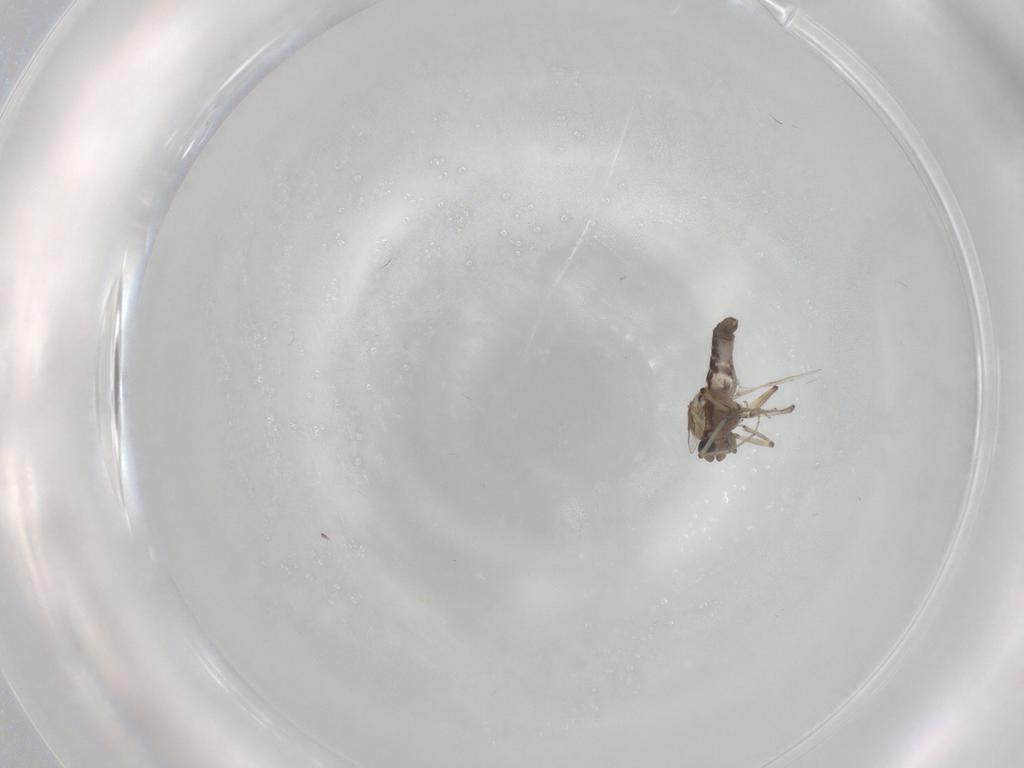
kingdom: Animalia
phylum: Arthropoda
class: Insecta
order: Diptera
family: Ceratopogonidae
